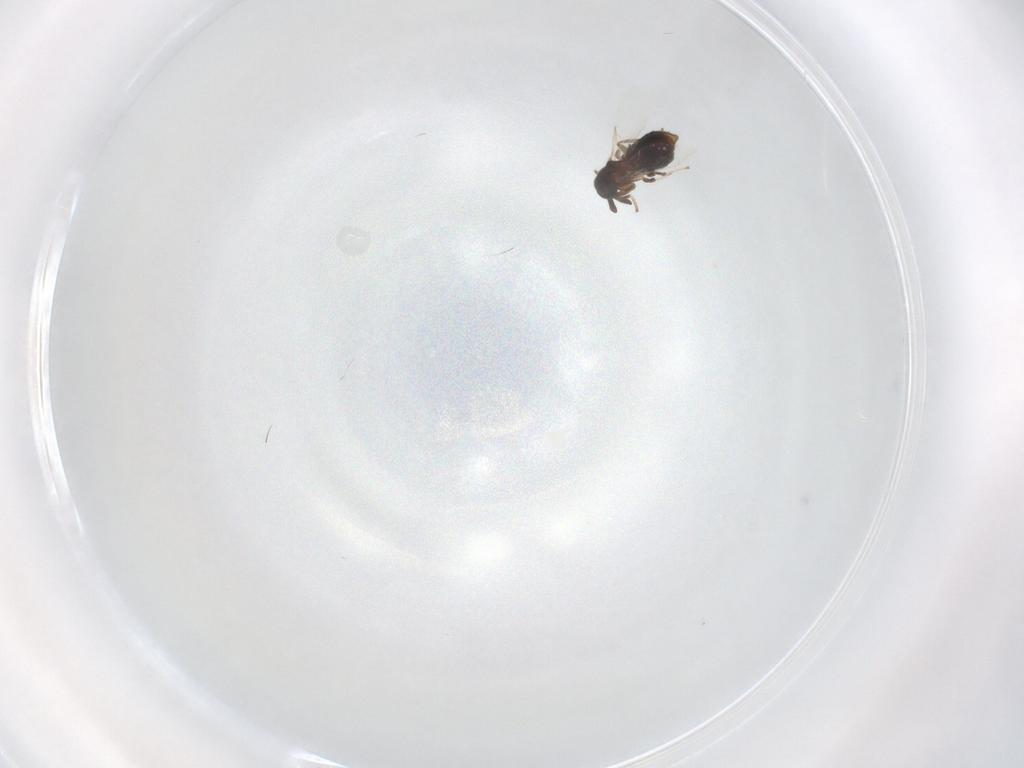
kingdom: Animalia
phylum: Arthropoda
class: Insecta
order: Diptera
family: Scatopsidae
